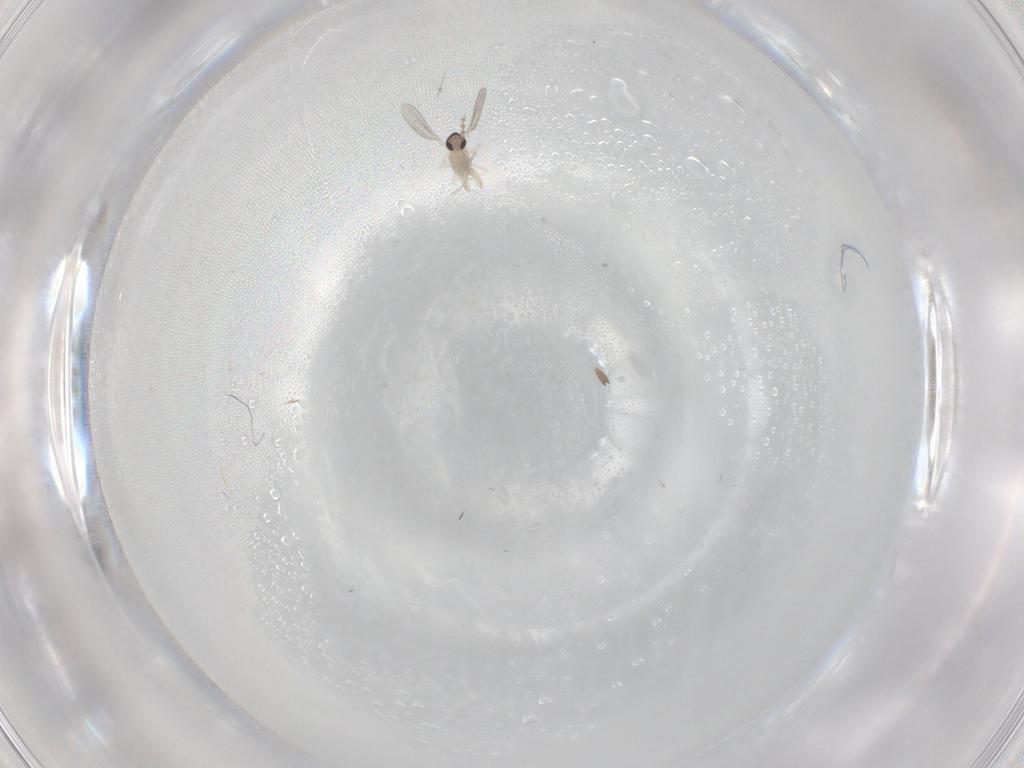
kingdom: Animalia
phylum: Arthropoda
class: Insecta
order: Diptera
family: Cecidomyiidae
